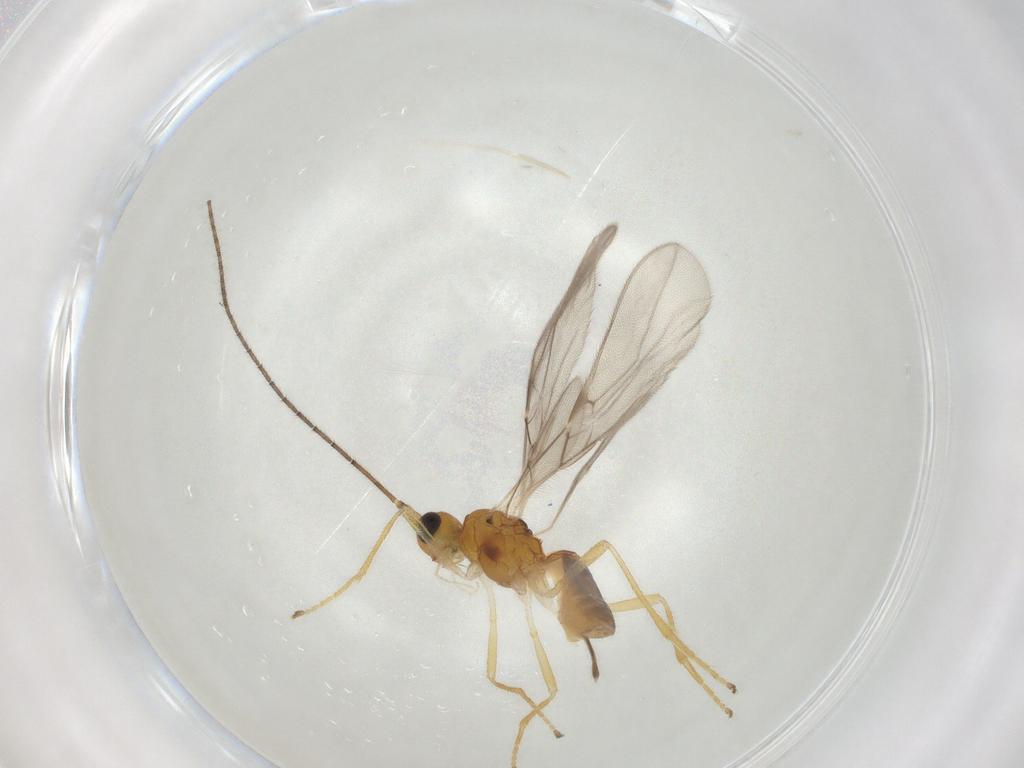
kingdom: Animalia
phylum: Arthropoda
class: Insecta
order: Hymenoptera
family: Braconidae
